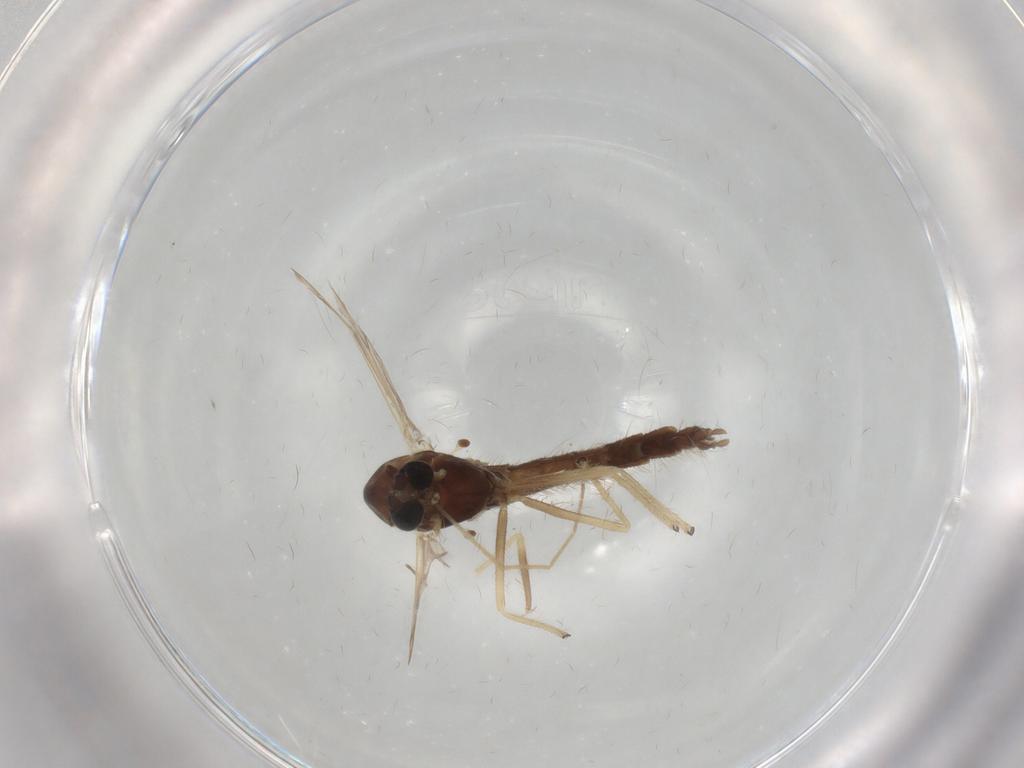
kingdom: Animalia
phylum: Arthropoda
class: Insecta
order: Diptera
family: Chironomidae
